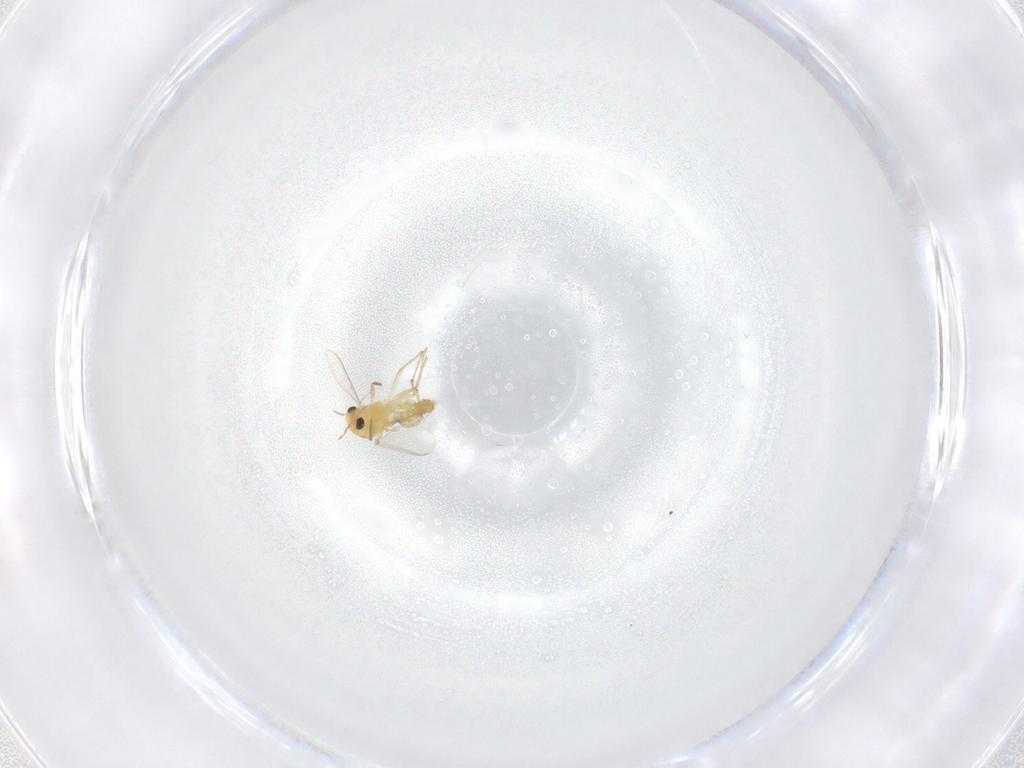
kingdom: Animalia
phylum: Arthropoda
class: Insecta
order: Diptera
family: Chironomidae
